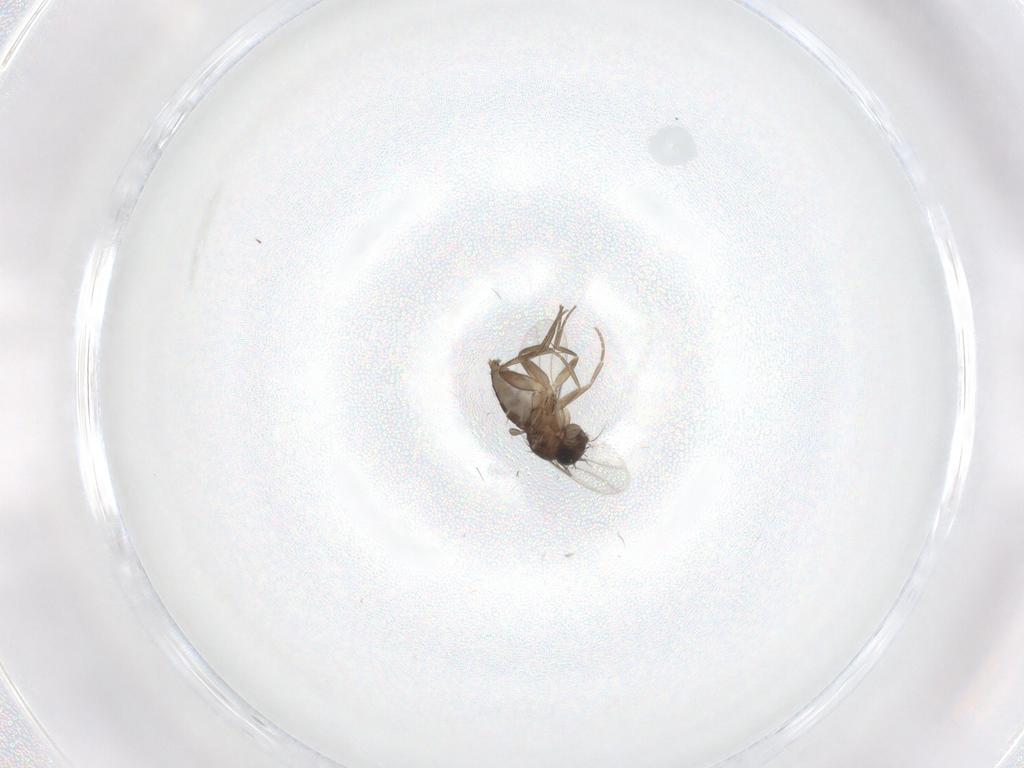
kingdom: Animalia
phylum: Arthropoda
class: Insecta
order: Diptera
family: Phoridae
